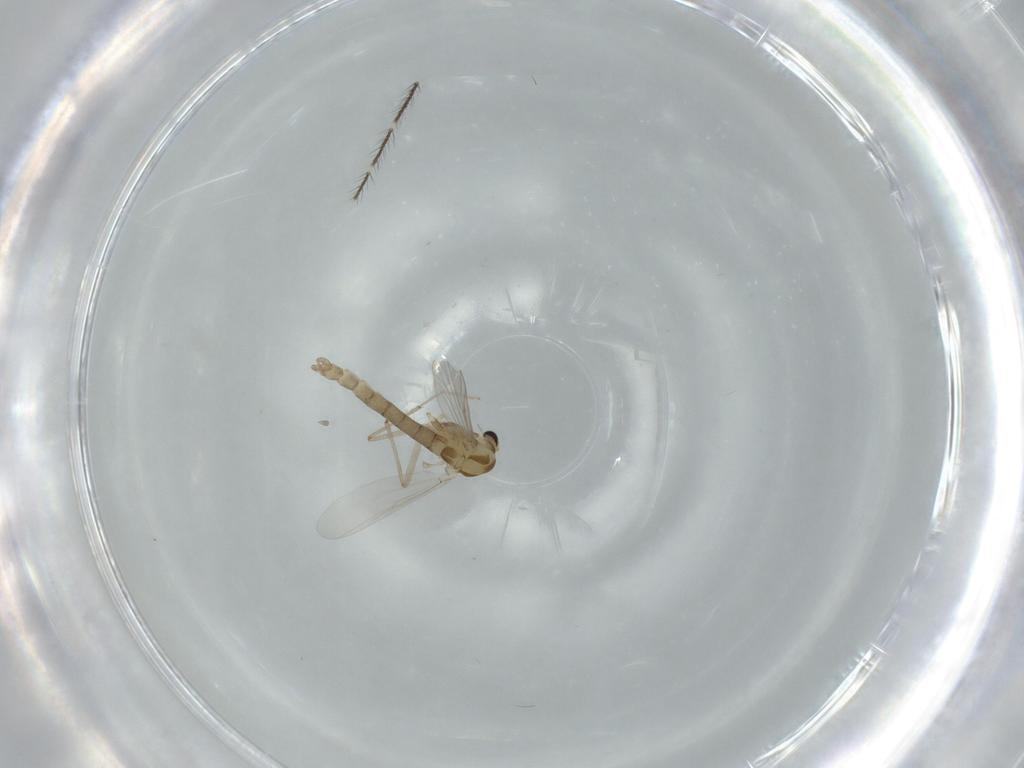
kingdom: Animalia
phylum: Arthropoda
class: Insecta
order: Diptera
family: Chironomidae
